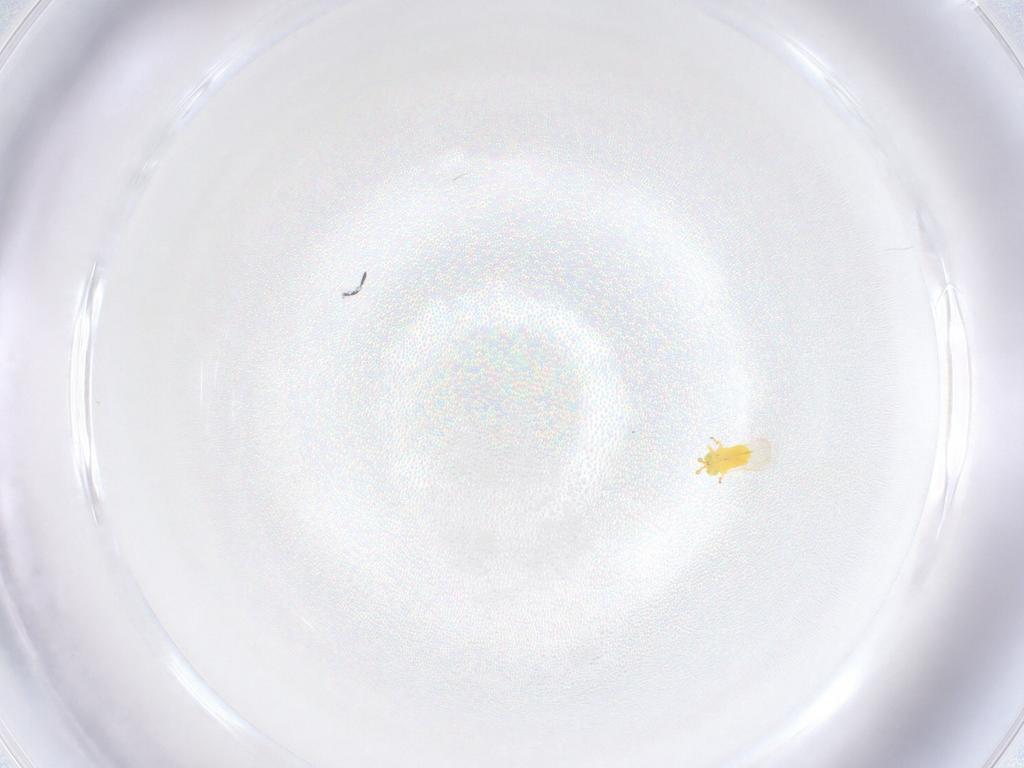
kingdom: Animalia
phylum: Arthropoda
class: Insecta
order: Diptera
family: Culicidae
